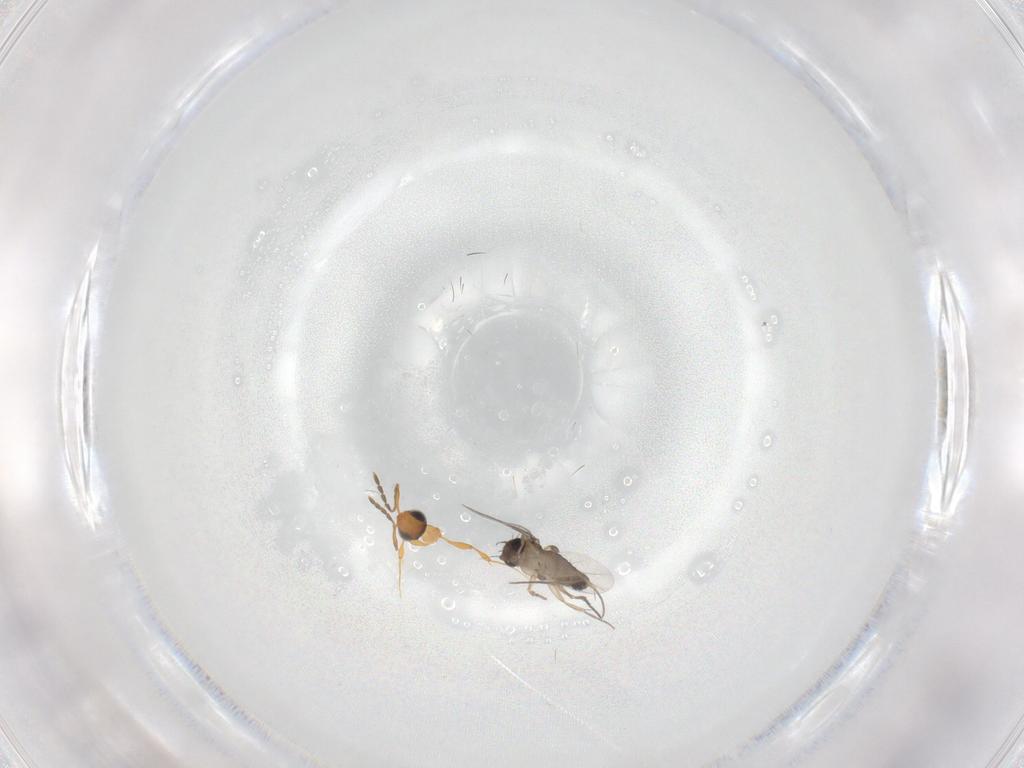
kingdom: Animalia
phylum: Arthropoda
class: Insecta
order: Diptera
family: Phoridae
